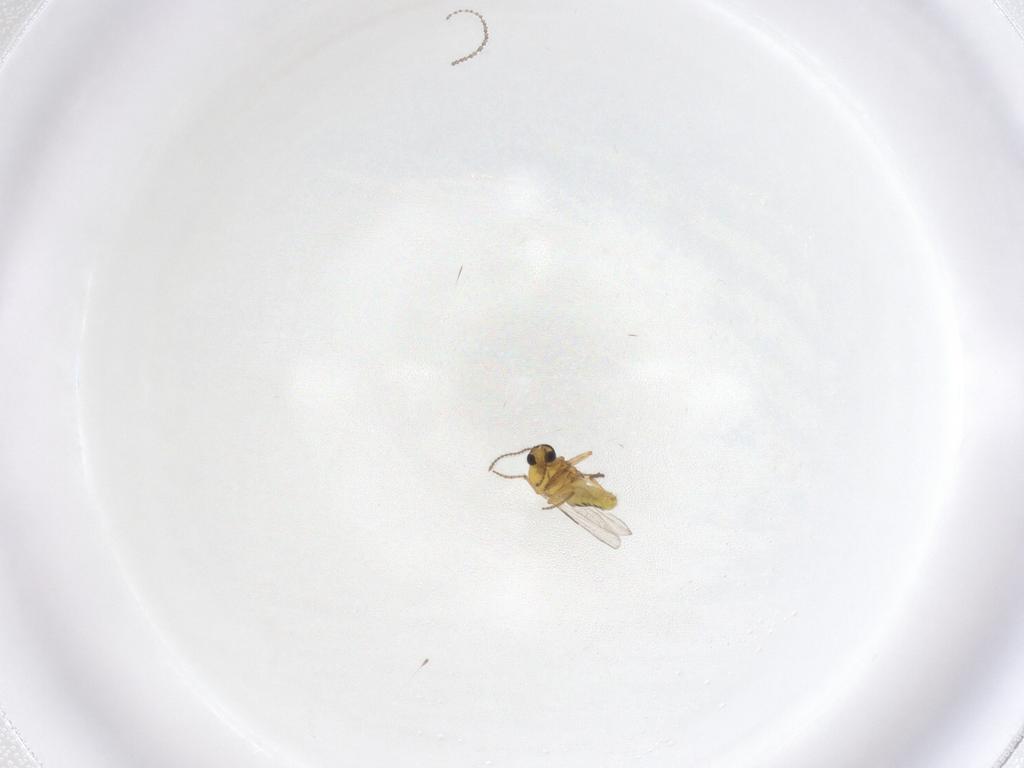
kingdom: Animalia
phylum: Arthropoda
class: Insecta
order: Diptera
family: Ceratopogonidae
